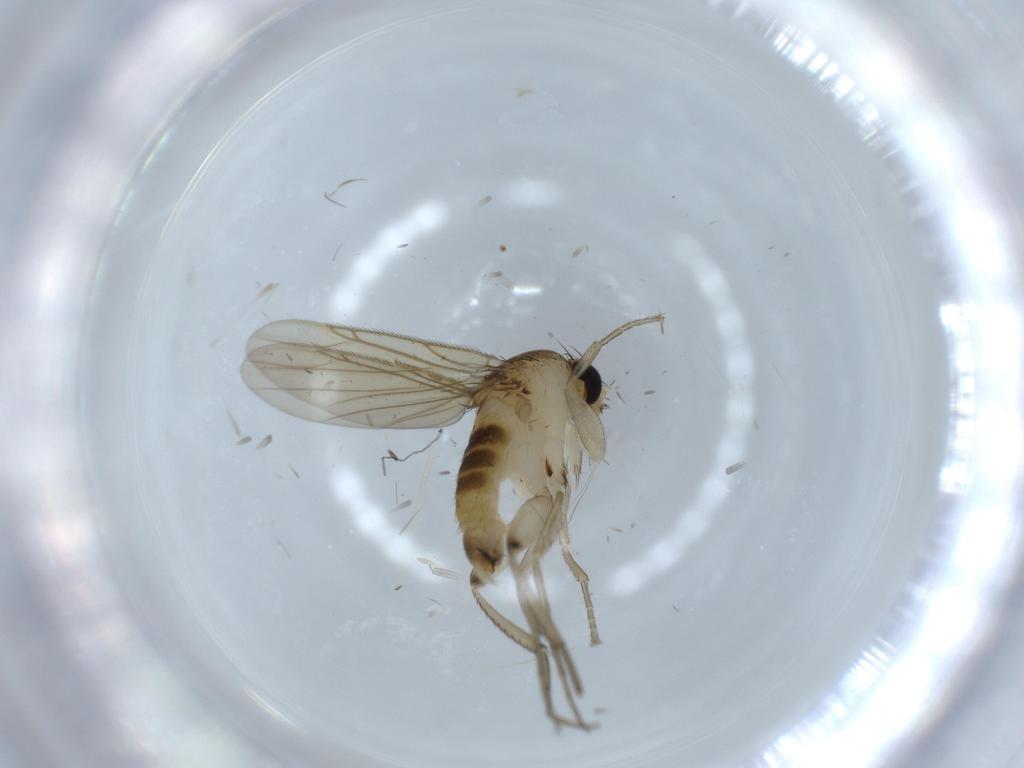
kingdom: Animalia
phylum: Arthropoda
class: Insecta
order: Diptera
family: Phoridae
